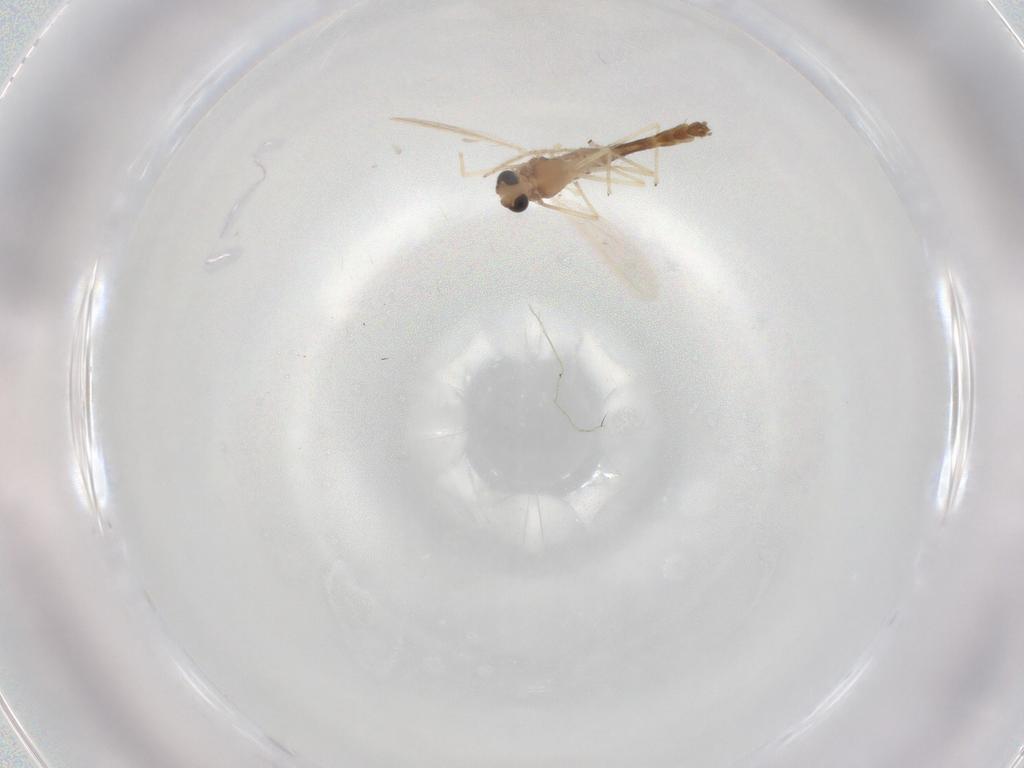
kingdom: Animalia
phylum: Arthropoda
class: Insecta
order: Diptera
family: Chironomidae
